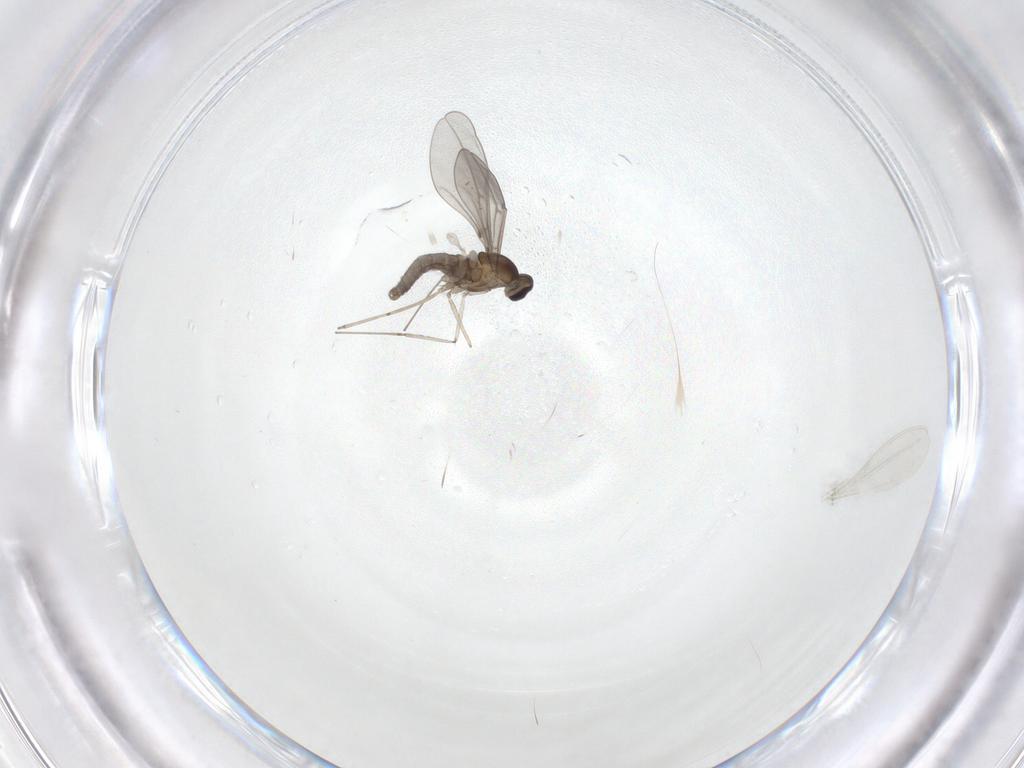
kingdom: Animalia
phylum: Arthropoda
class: Insecta
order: Diptera
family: Cecidomyiidae
